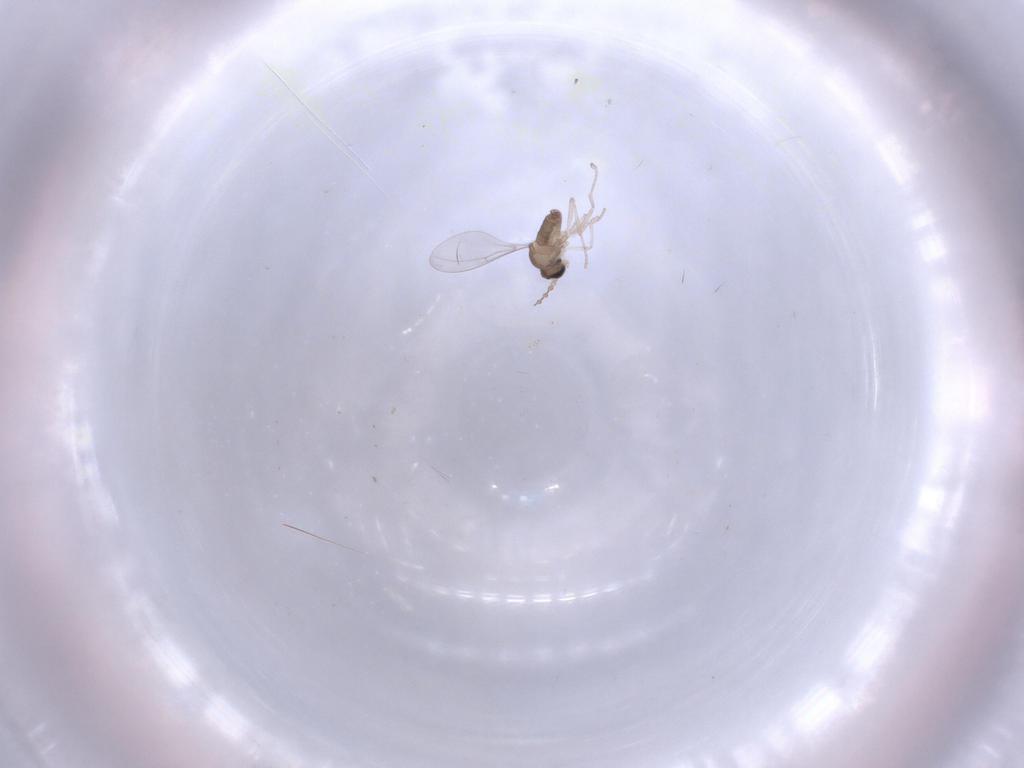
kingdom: Animalia
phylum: Arthropoda
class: Insecta
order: Diptera
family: Cecidomyiidae
